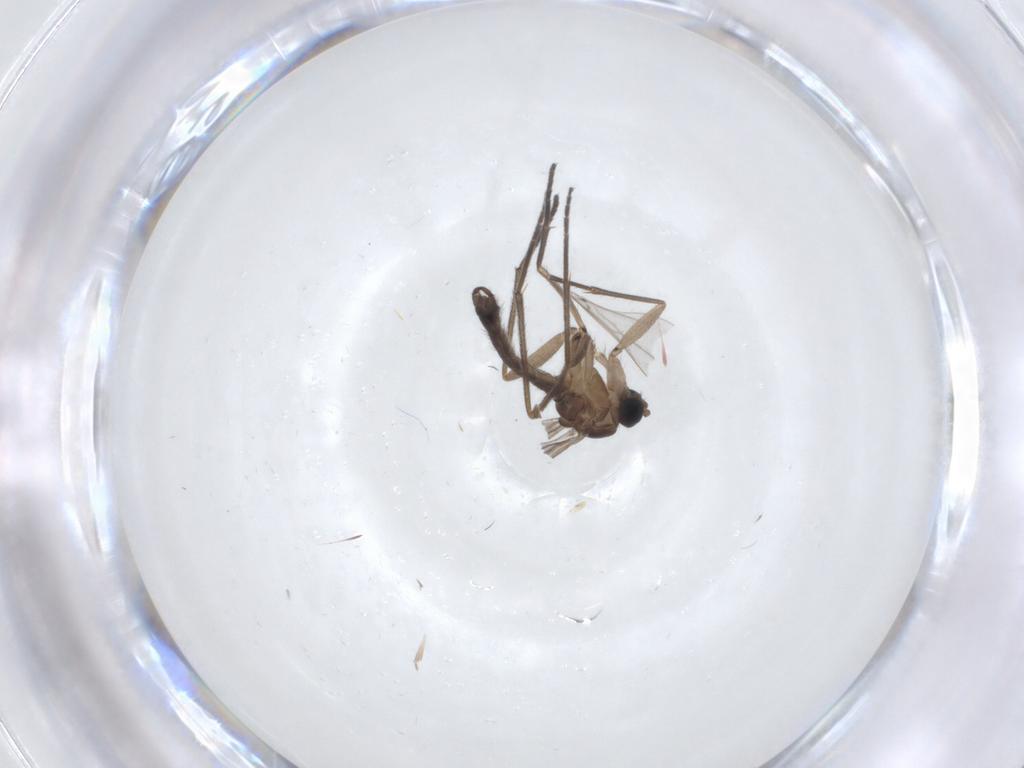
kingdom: Animalia
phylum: Arthropoda
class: Insecta
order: Diptera
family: Sciaridae
